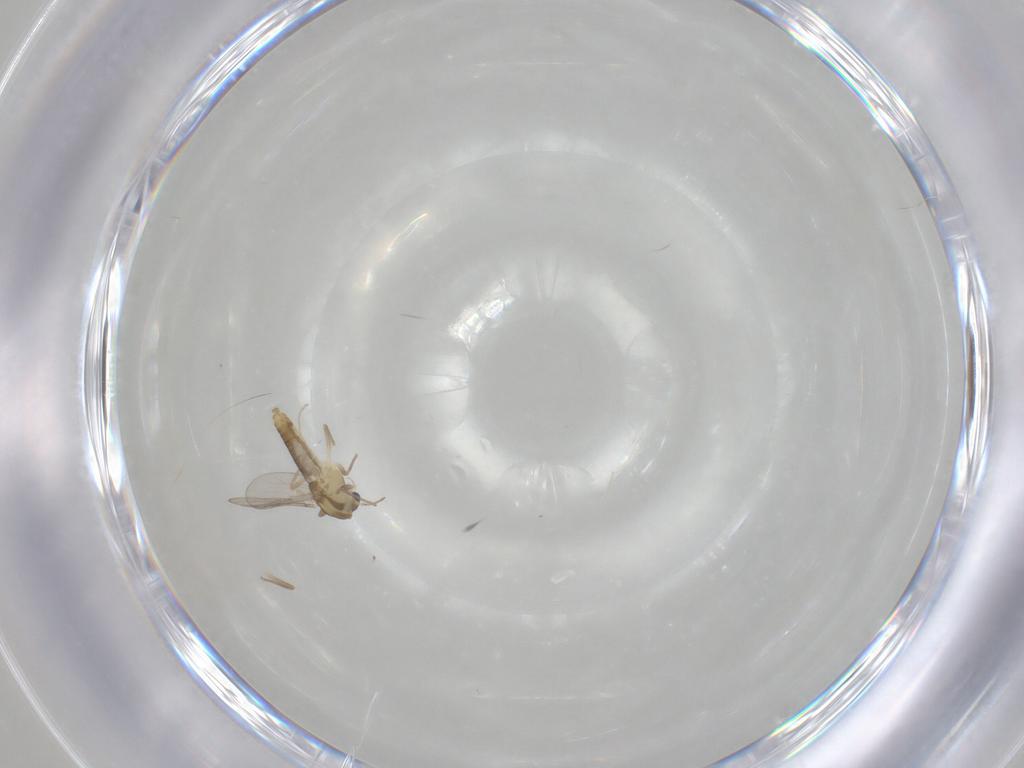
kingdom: Animalia
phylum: Arthropoda
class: Insecta
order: Diptera
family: Chironomidae
